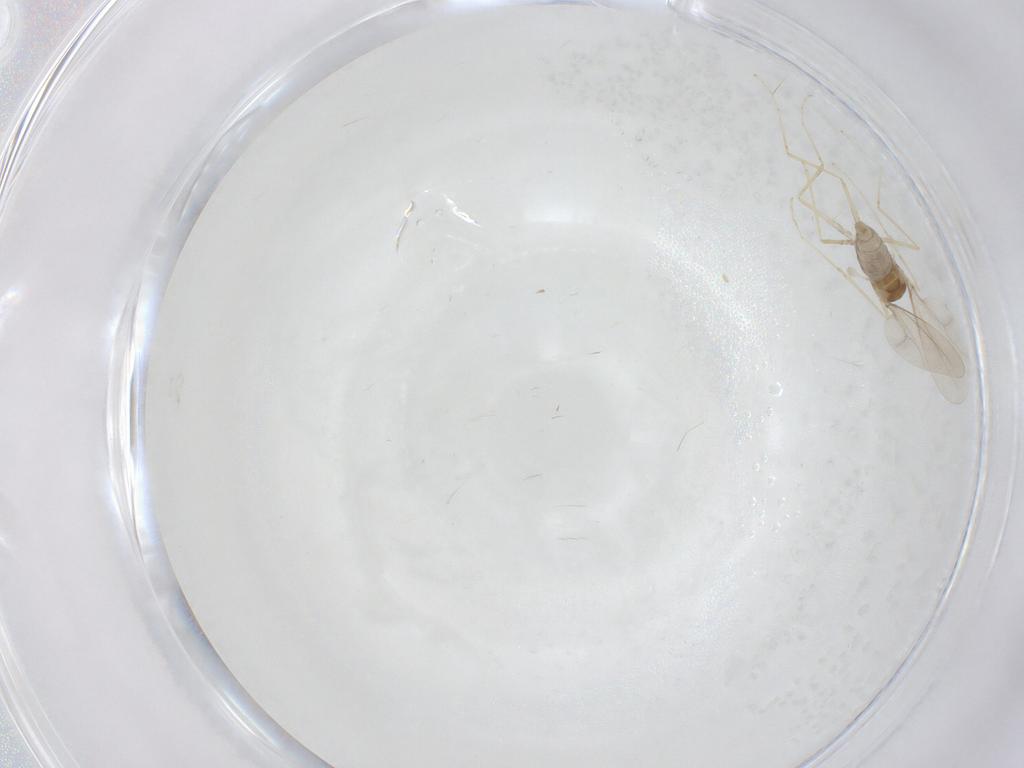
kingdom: Animalia
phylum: Arthropoda
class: Insecta
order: Diptera
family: Cecidomyiidae
